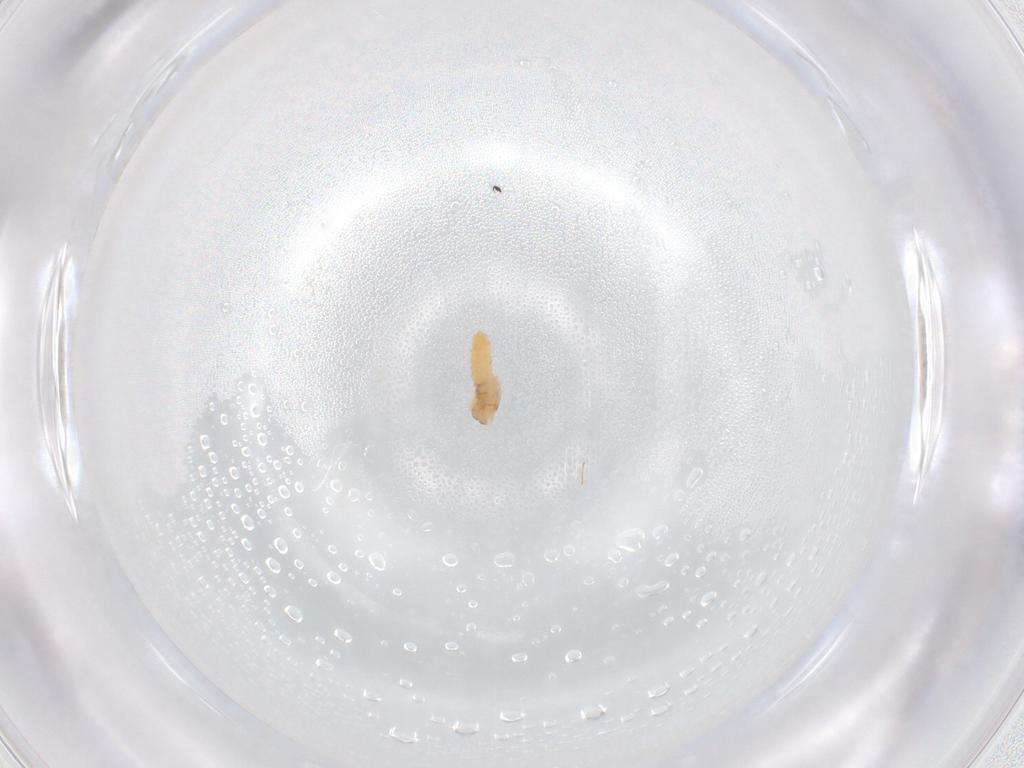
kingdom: Animalia
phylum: Arthropoda
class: Insecta
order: Diptera
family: Cecidomyiidae
